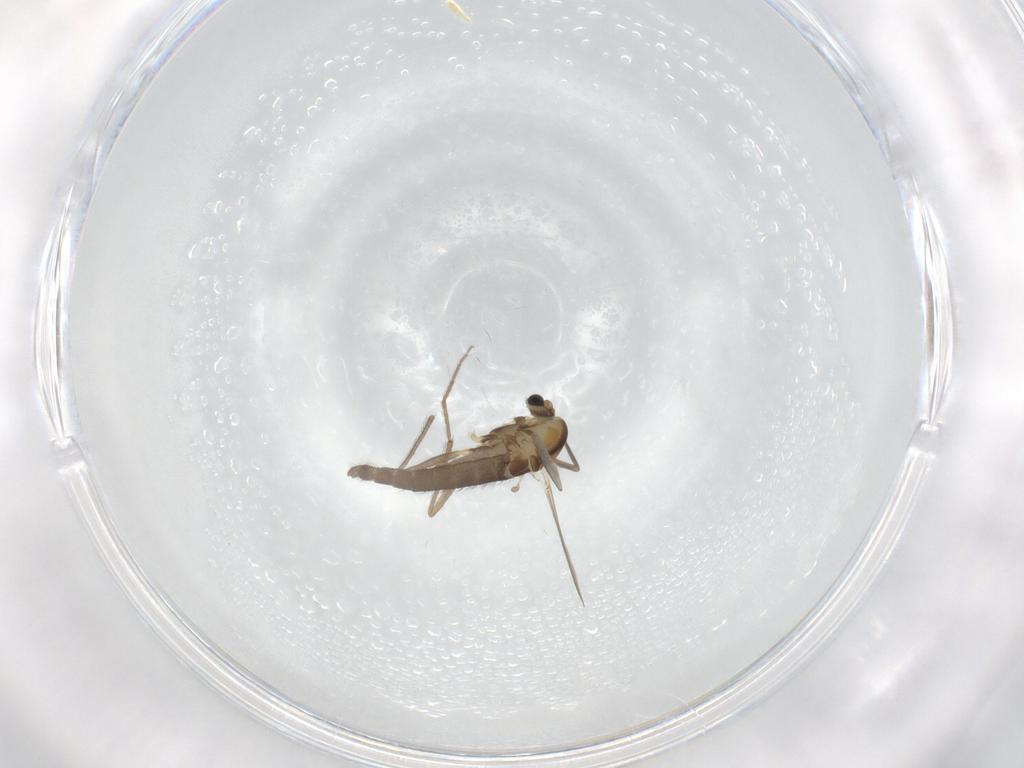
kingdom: Animalia
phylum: Arthropoda
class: Insecta
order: Diptera
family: Chironomidae
